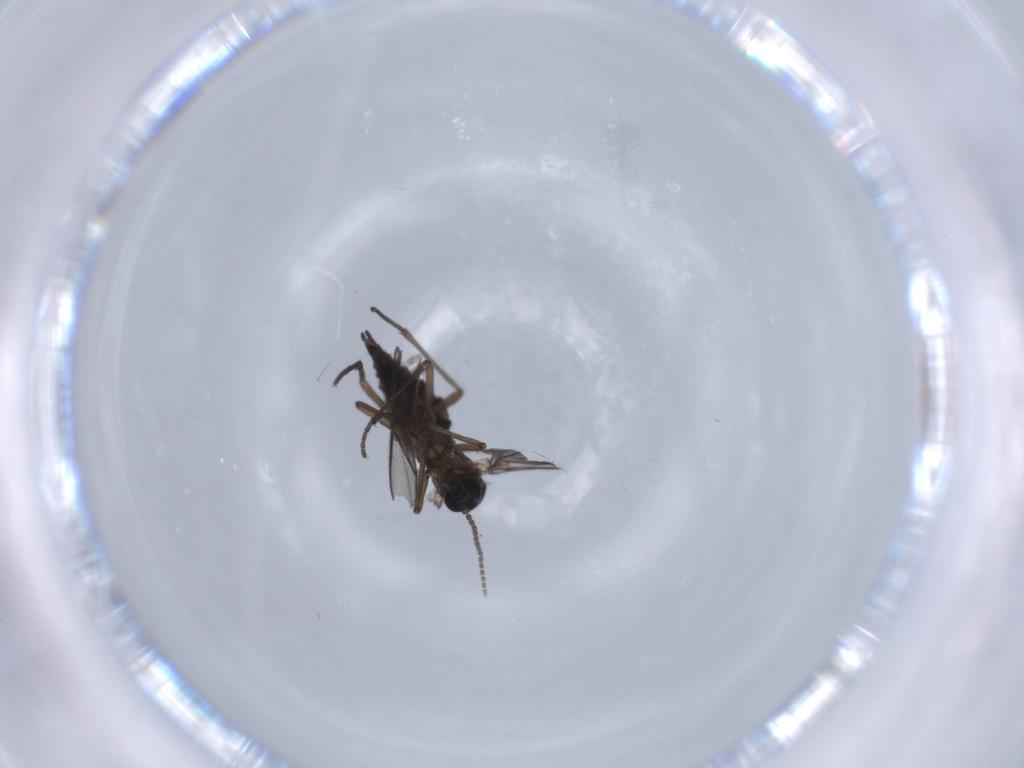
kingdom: Animalia
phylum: Arthropoda
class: Insecta
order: Diptera
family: Sciaridae
